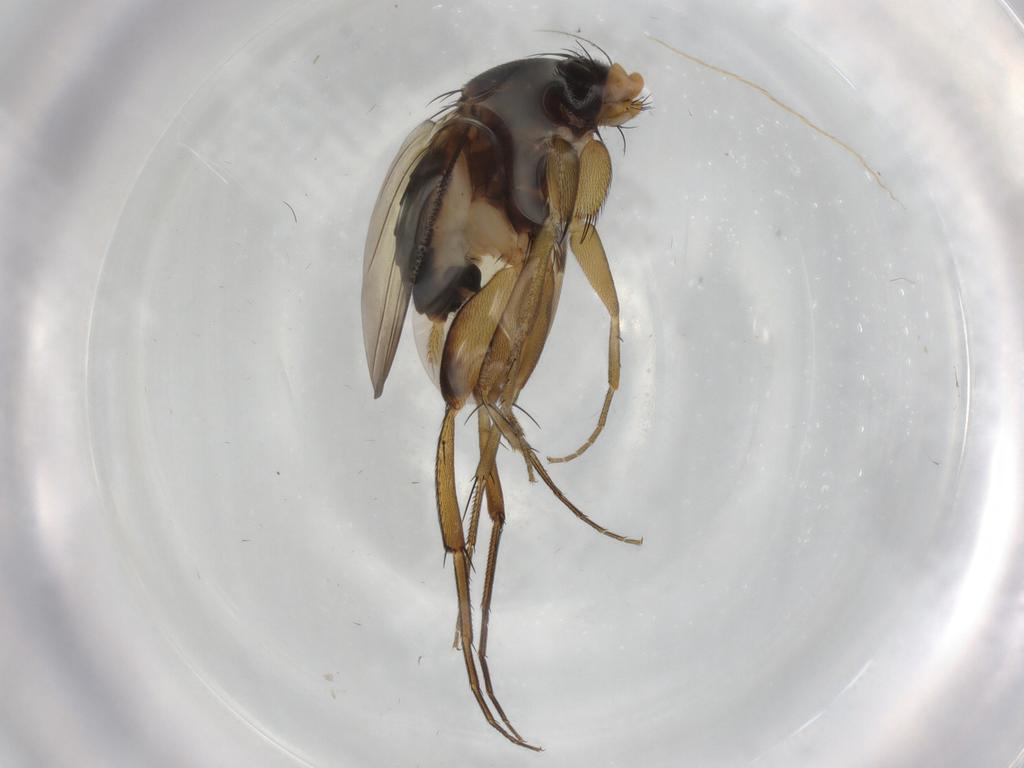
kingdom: Animalia
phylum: Arthropoda
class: Insecta
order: Diptera
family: Phoridae
